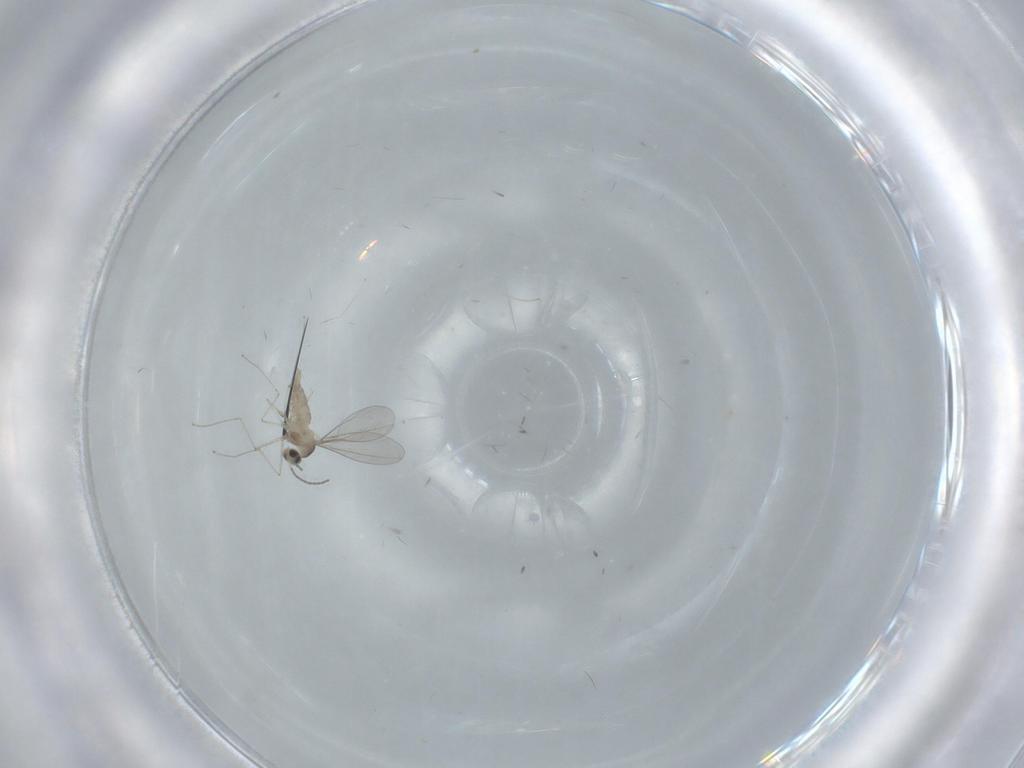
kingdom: Animalia
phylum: Arthropoda
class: Insecta
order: Diptera
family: Cecidomyiidae
